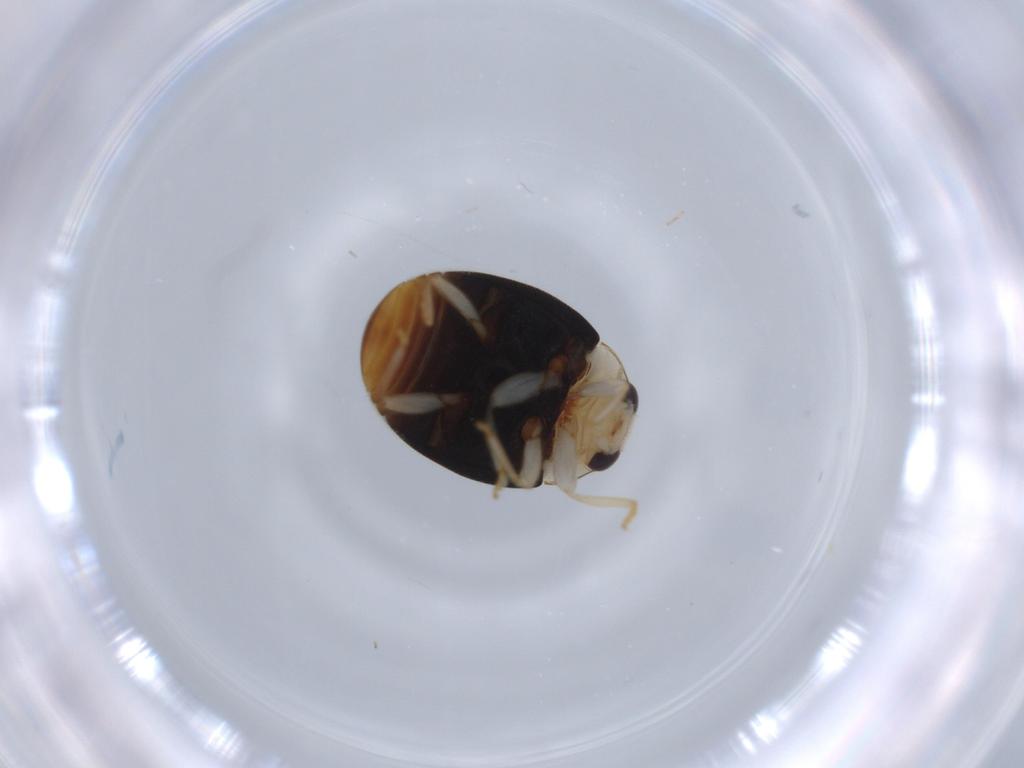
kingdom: Animalia
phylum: Arthropoda
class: Insecta
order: Coleoptera
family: Coccinellidae
